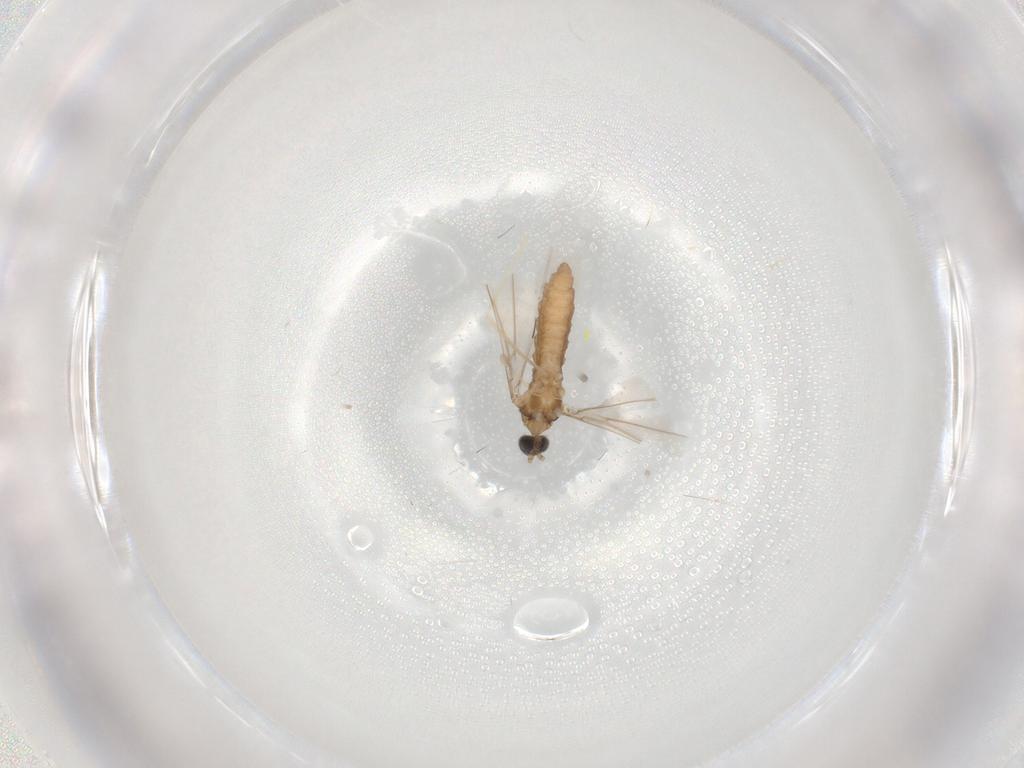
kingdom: Animalia
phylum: Arthropoda
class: Insecta
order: Diptera
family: Cecidomyiidae
